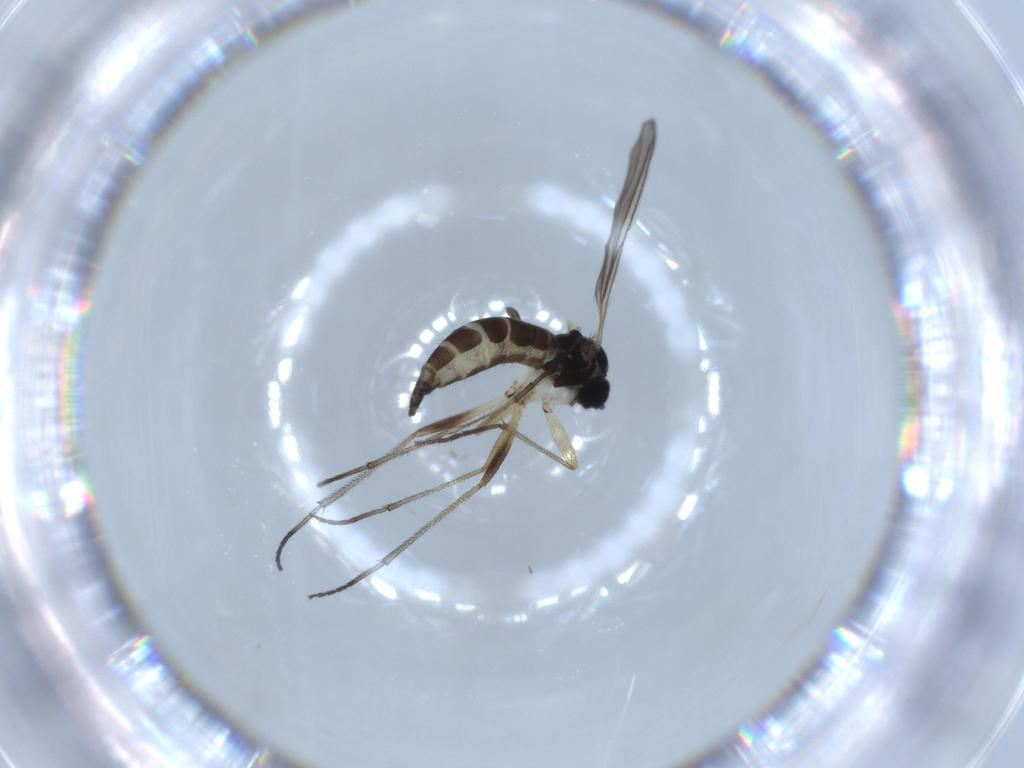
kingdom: Animalia
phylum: Arthropoda
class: Insecta
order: Diptera
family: Sciaridae
